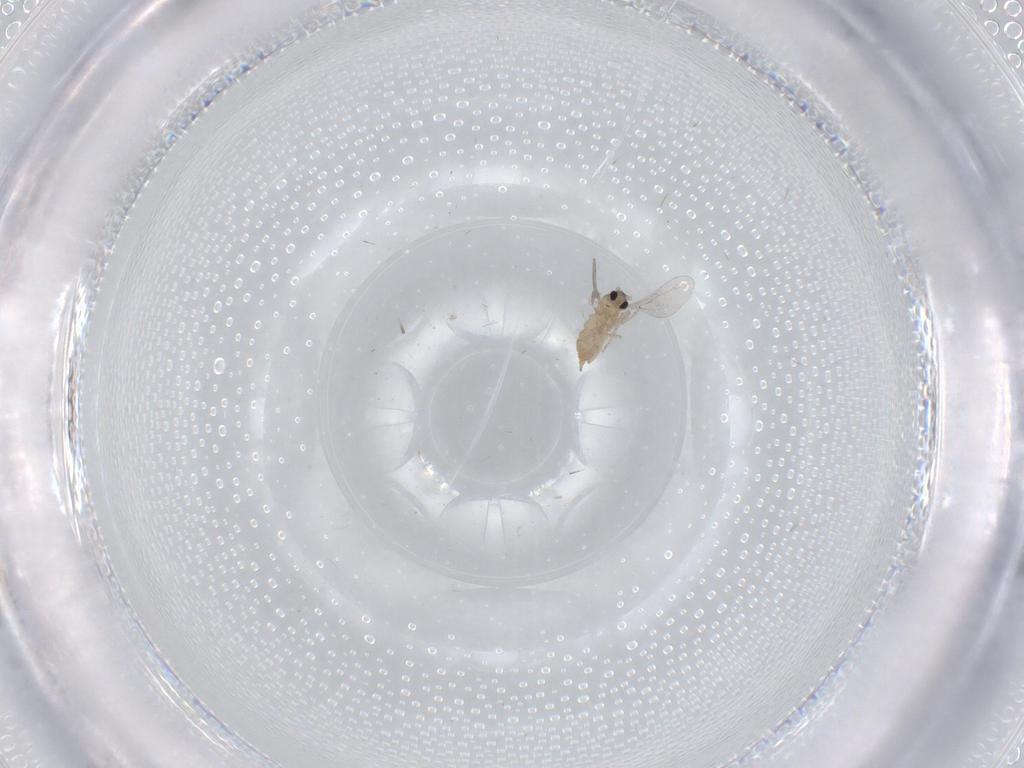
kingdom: Animalia
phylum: Arthropoda
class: Insecta
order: Diptera
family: Cecidomyiidae
